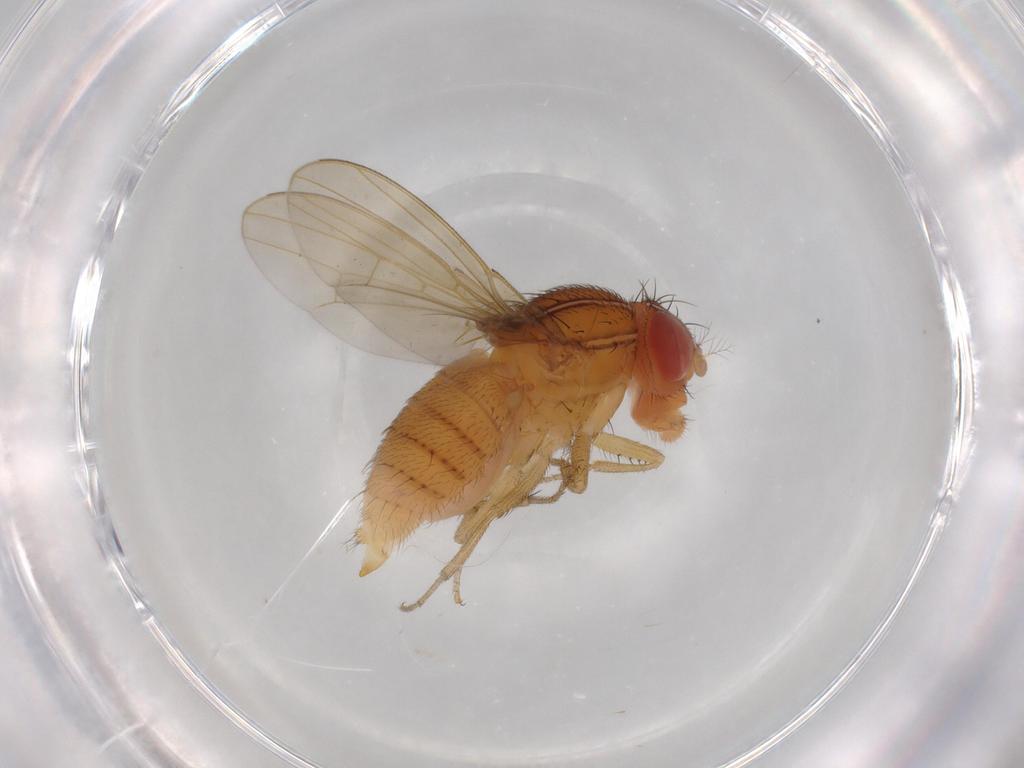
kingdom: Animalia
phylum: Arthropoda
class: Insecta
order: Diptera
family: Drosophilidae
